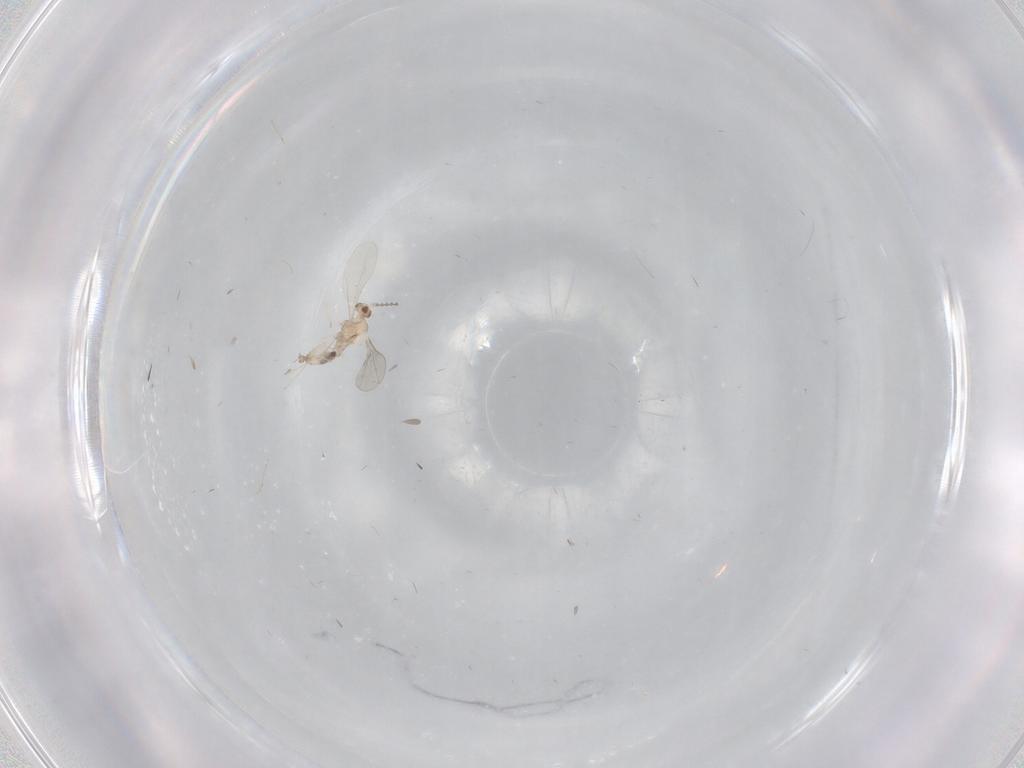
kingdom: Animalia
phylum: Arthropoda
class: Insecta
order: Diptera
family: Cecidomyiidae
